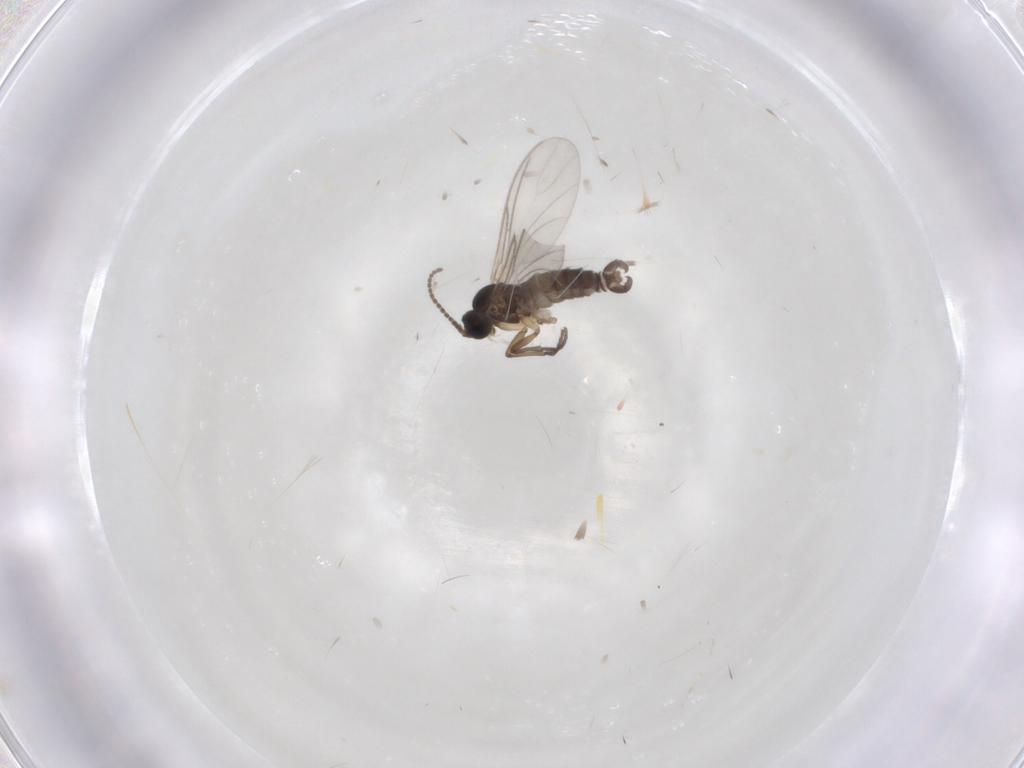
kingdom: Animalia
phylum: Arthropoda
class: Insecta
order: Diptera
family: Sciaridae
